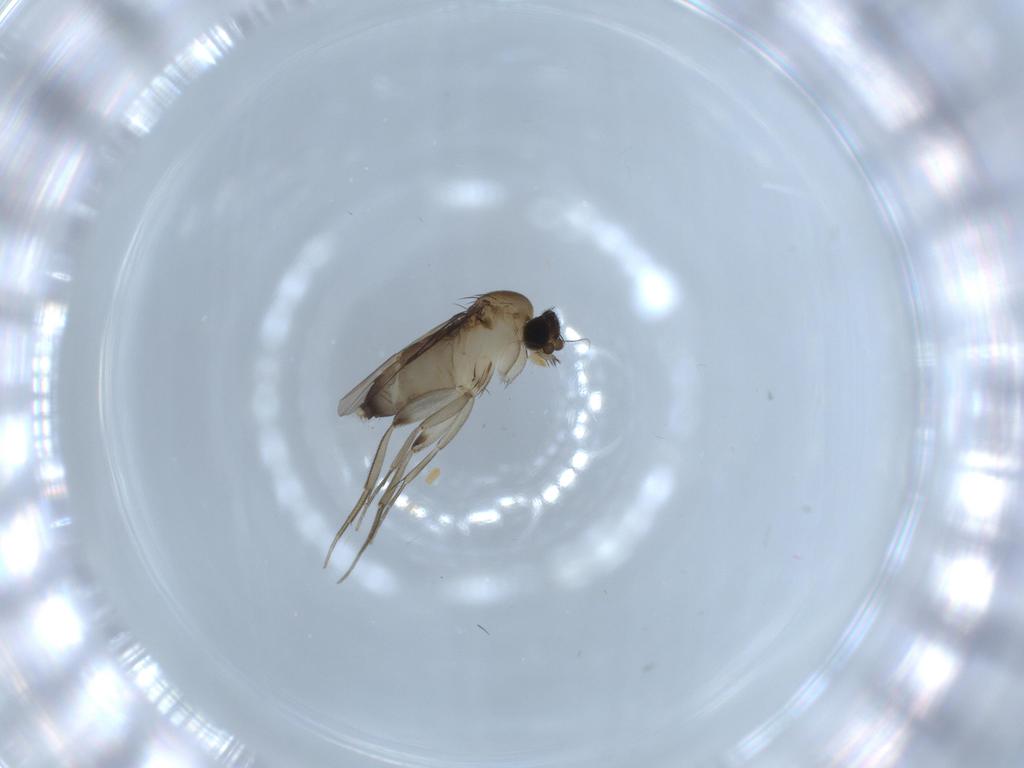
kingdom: Animalia
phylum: Arthropoda
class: Insecta
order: Diptera
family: Phoridae
